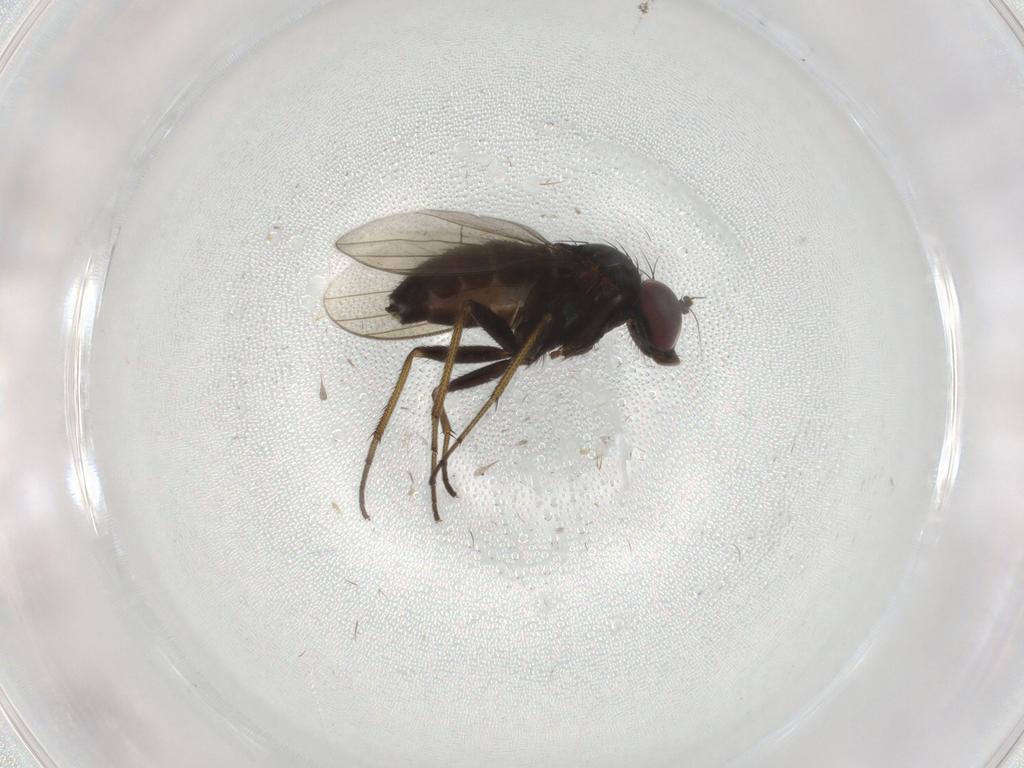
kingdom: Animalia
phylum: Arthropoda
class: Insecta
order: Diptera
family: Dolichopodidae
